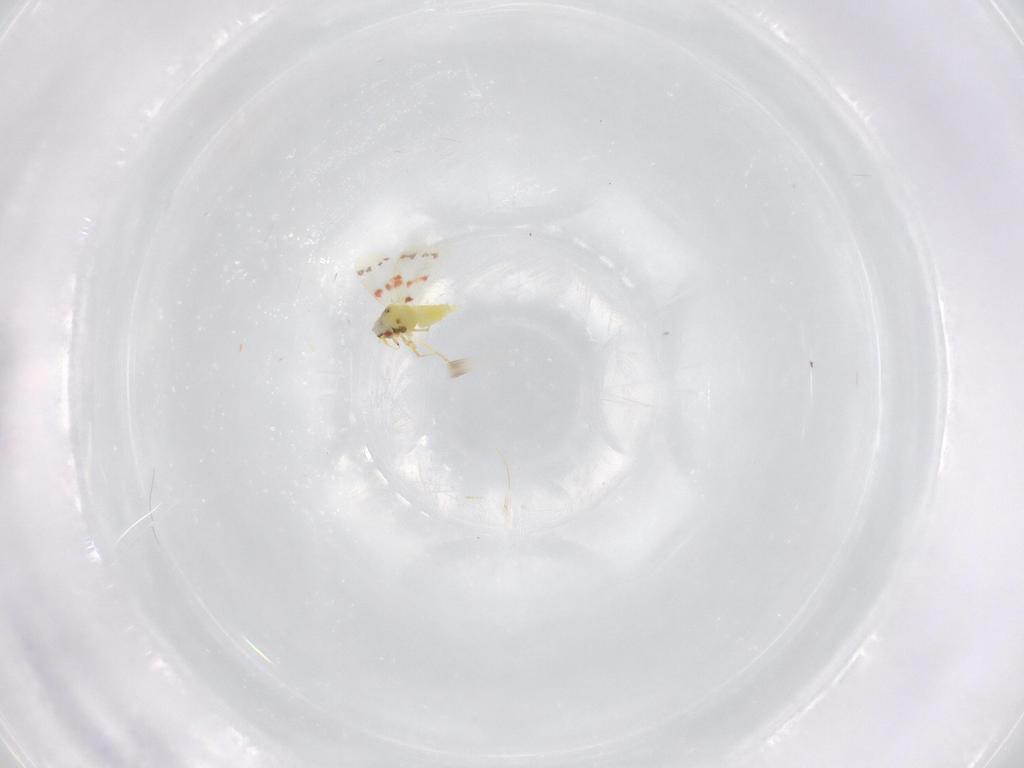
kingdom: Animalia
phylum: Arthropoda
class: Insecta
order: Hemiptera
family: Aleyrodidae
